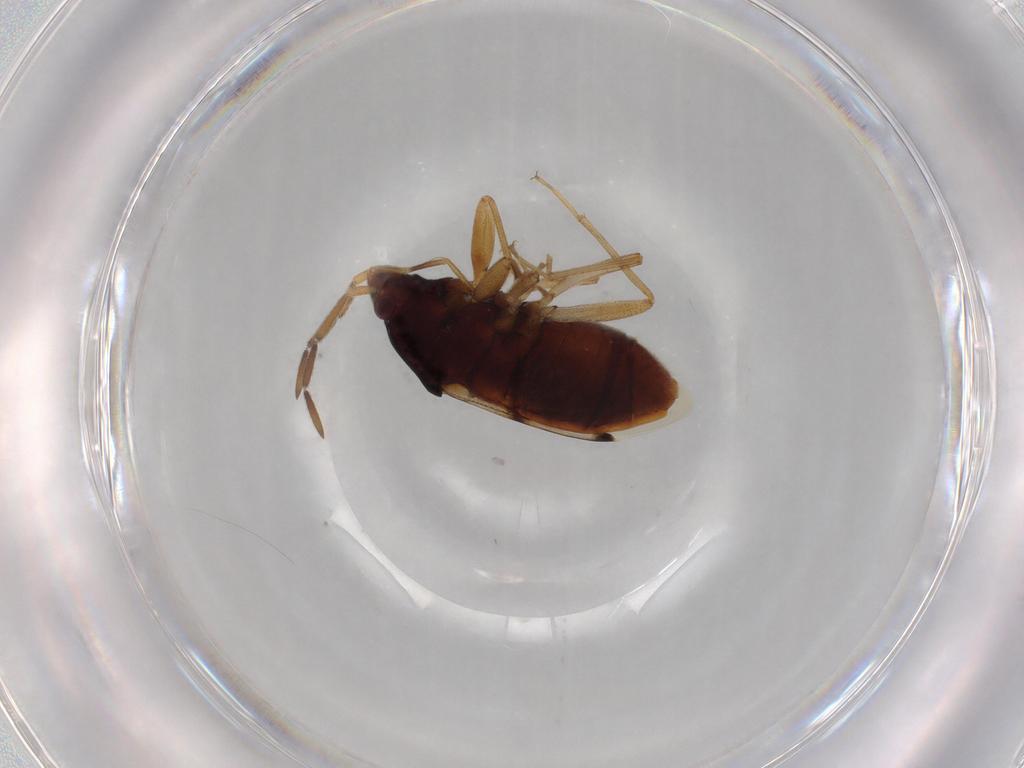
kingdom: Animalia
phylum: Arthropoda
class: Insecta
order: Hemiptera
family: Rhyparochromidae
